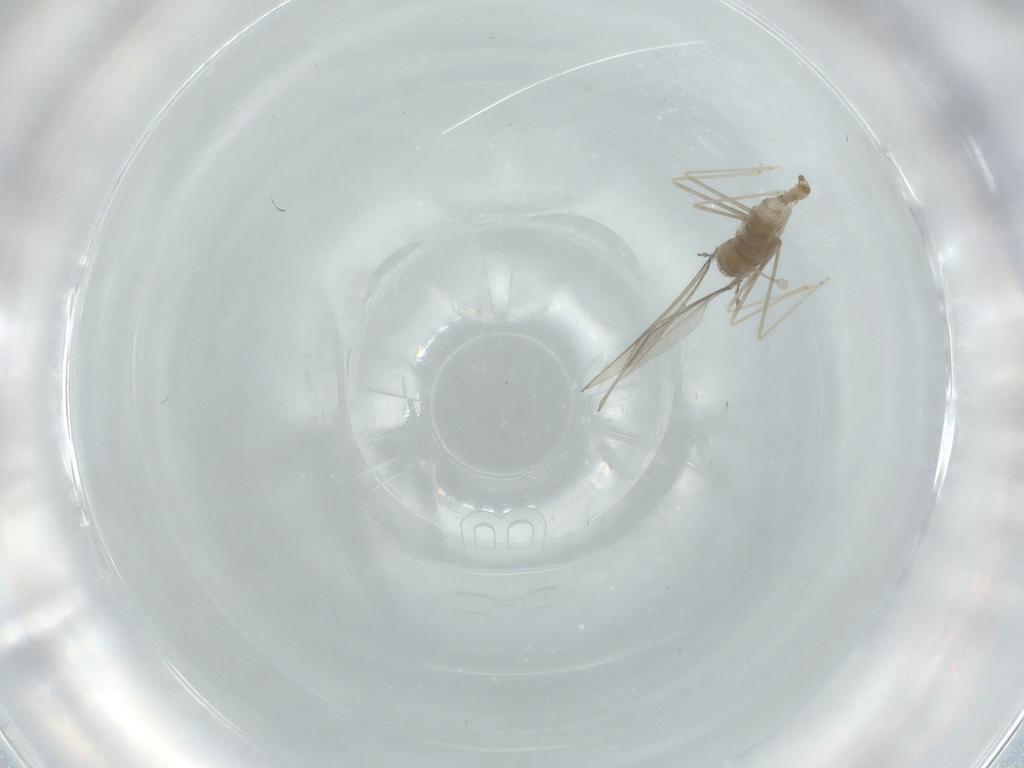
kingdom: Animalia
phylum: Arthropoda
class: Insecta
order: Diptera
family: Ephydridae
